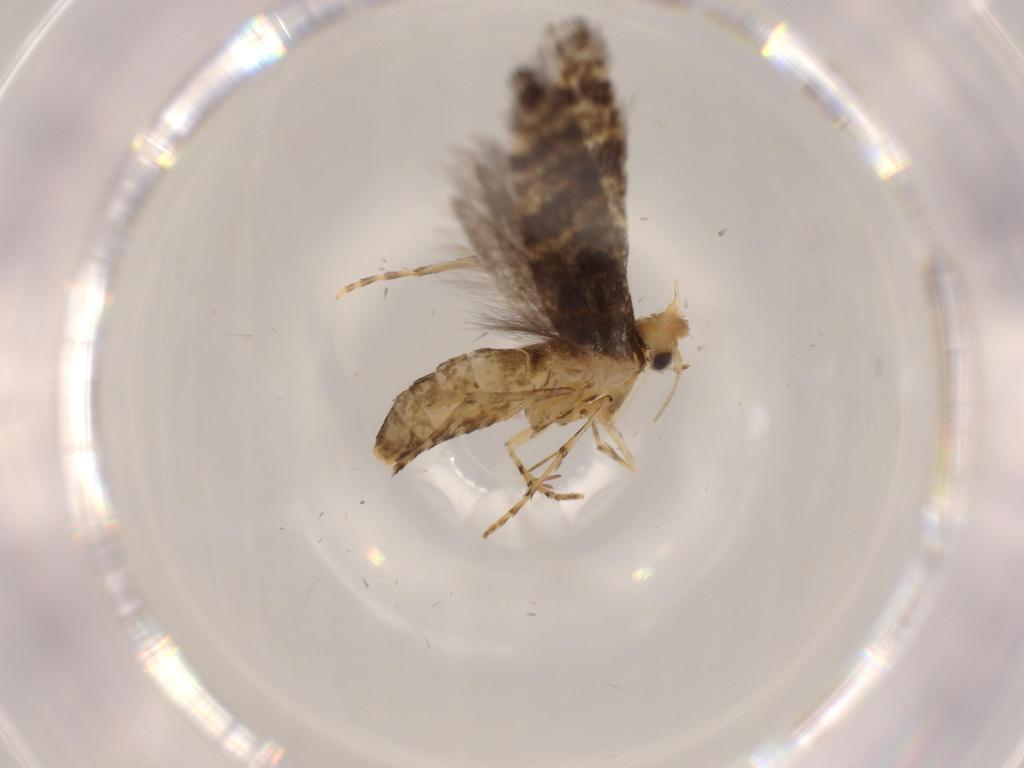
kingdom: Animalia
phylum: Arthropoda
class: Insecta
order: Lepidoptera
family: Argyresthiidae
